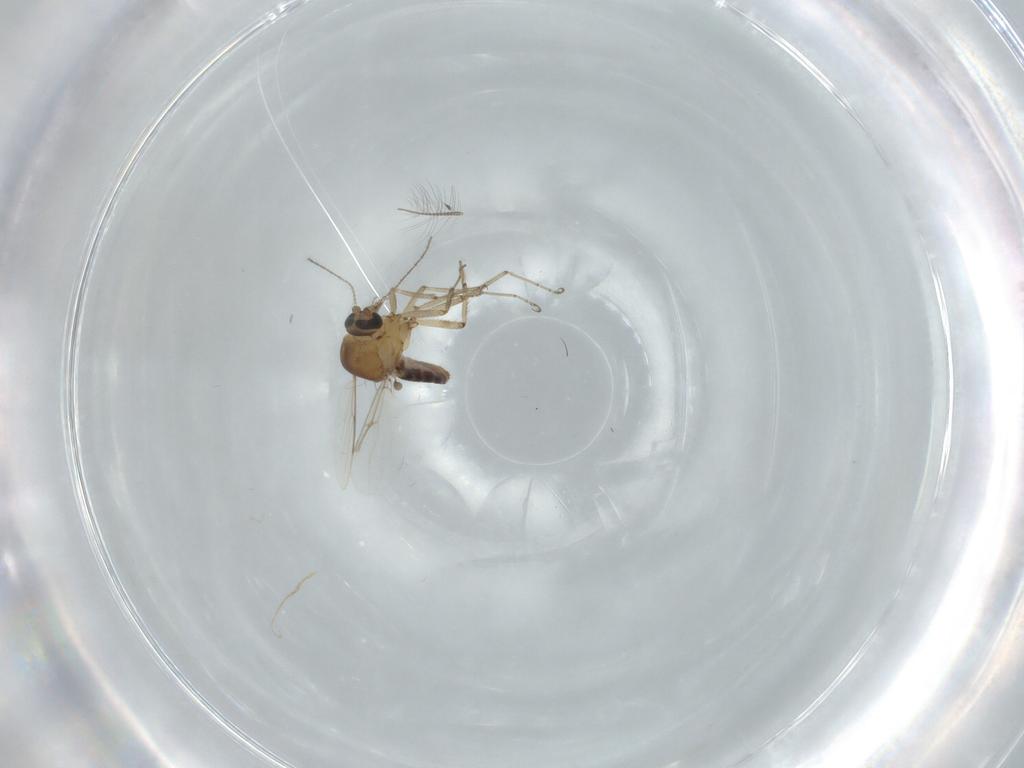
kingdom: Animalia
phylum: Arthropoda
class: Insecta
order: Diptera
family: Ceratopogonidae
